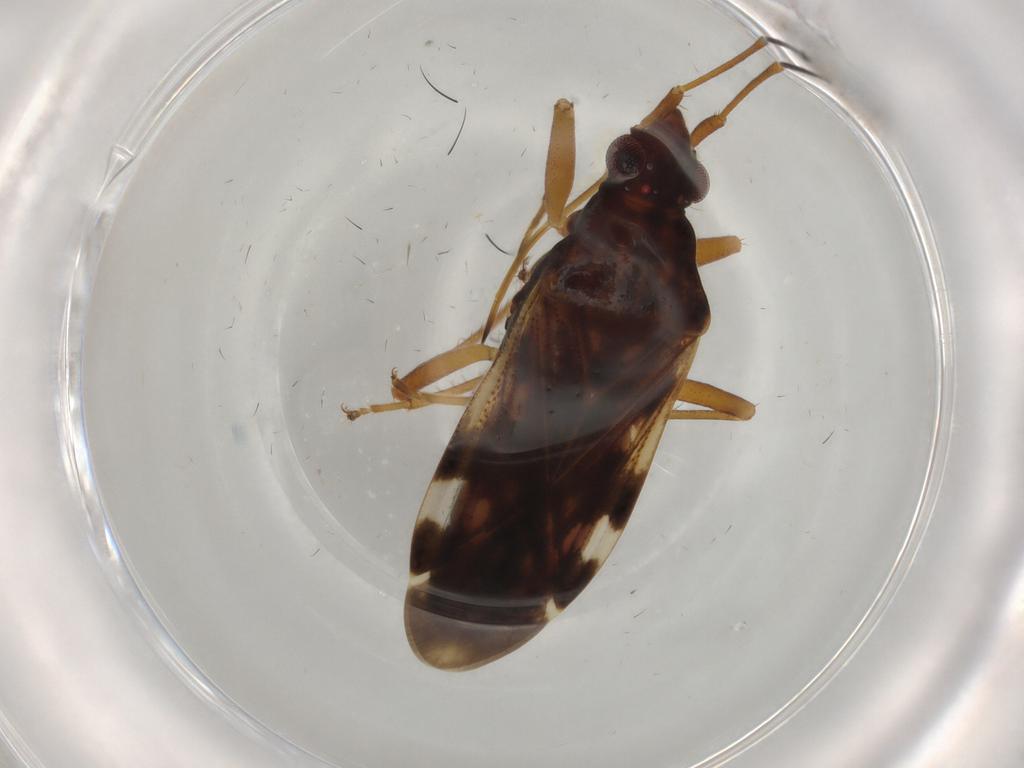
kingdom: Animalia
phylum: Arthropoda
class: Insecta
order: Hemiptera
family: Rhyparochromidae
